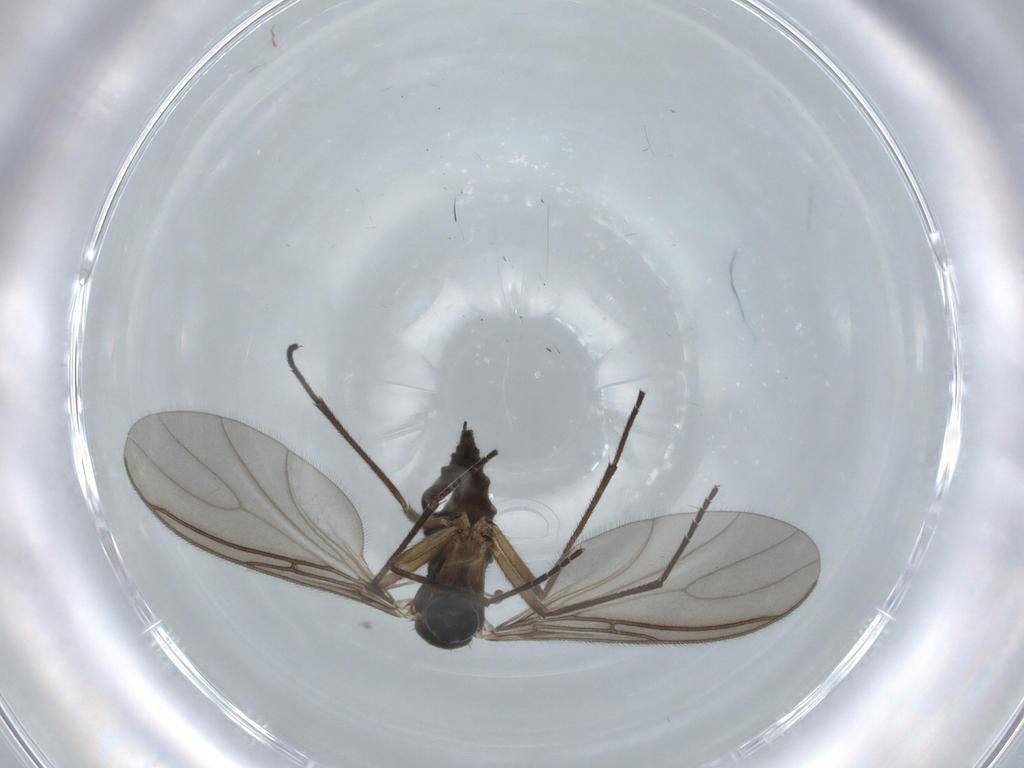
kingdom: Animalia
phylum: Arthropoda
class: Insecta
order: Diptera
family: Sciaridae
